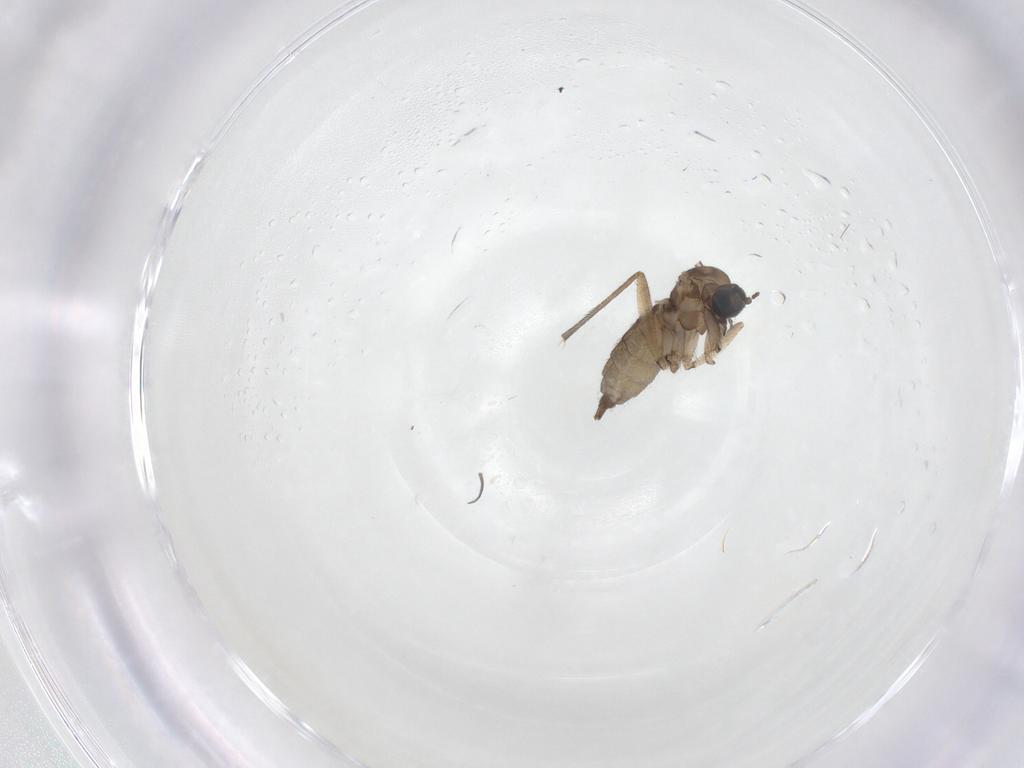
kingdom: Animalia
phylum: Arthropoda
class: Insecta
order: Diptera
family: Sciaridae
